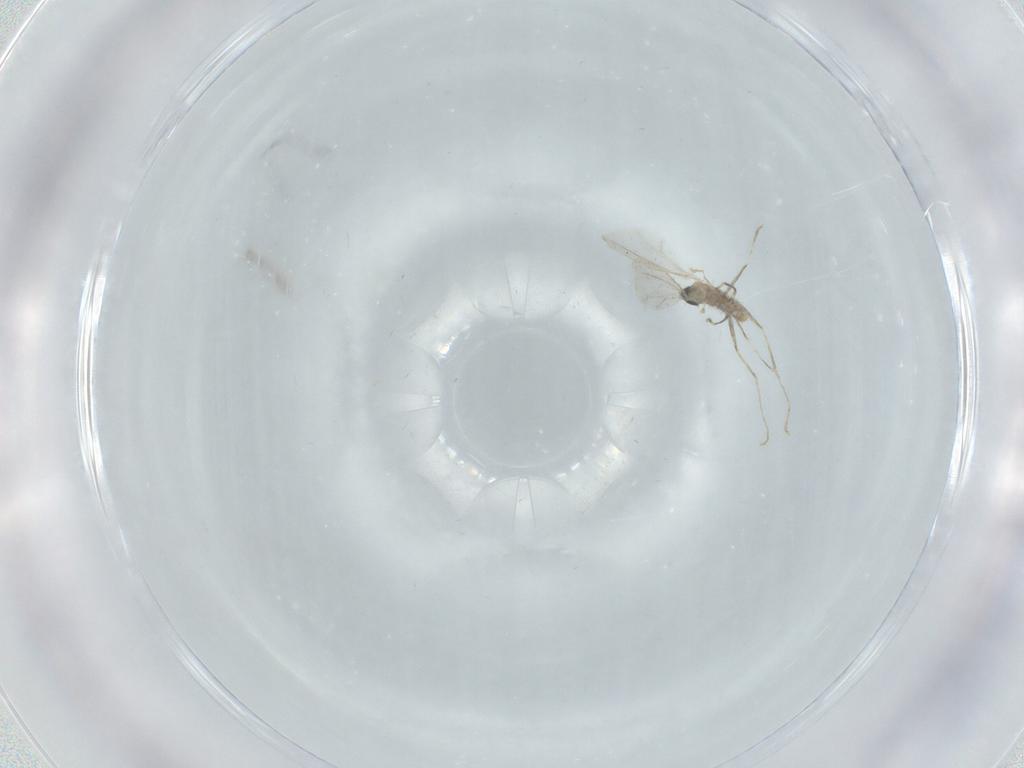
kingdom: Animalia
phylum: Arthropoda
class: Insecta
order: Diptera
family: Cecidomyiidae
